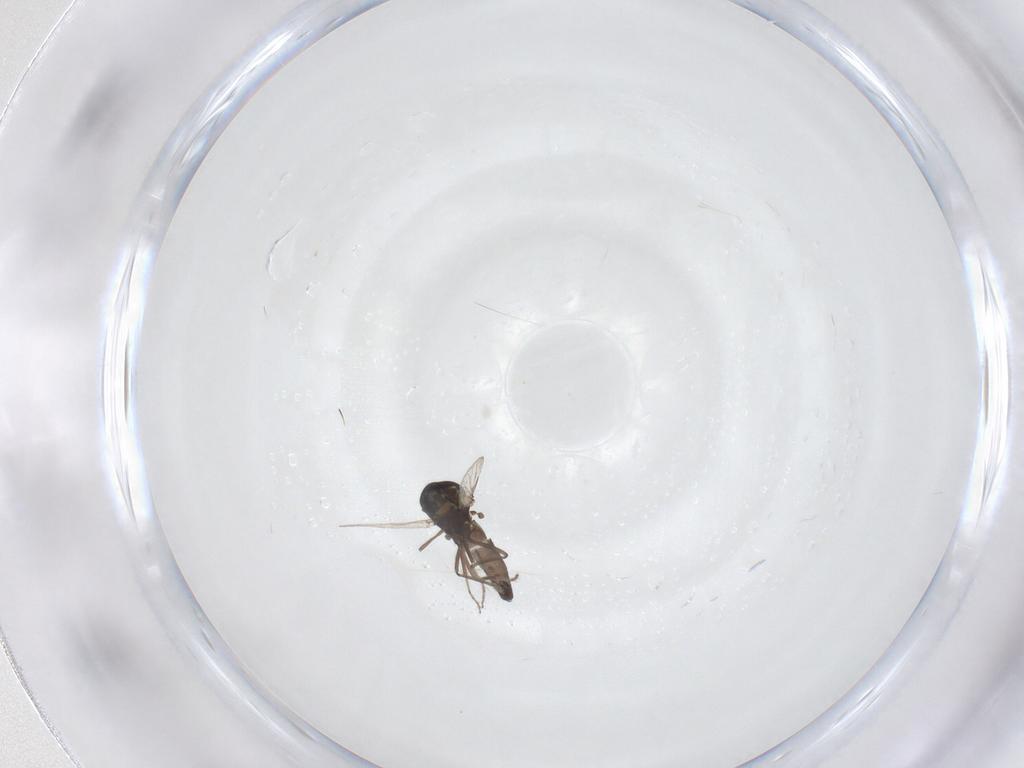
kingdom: Animalia
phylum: Arthropoda
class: Insecta
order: Diptera
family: Ceratopogonidae
